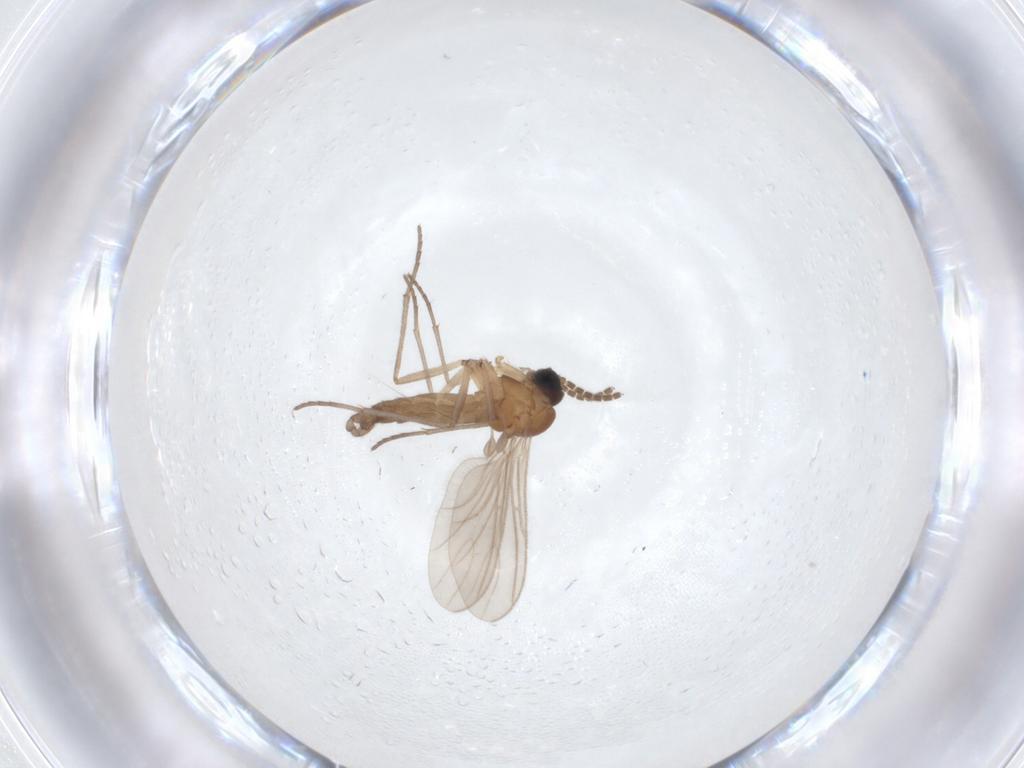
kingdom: Animalia
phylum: Arthropoda
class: Insecta
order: Diptera
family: Sciaridae
